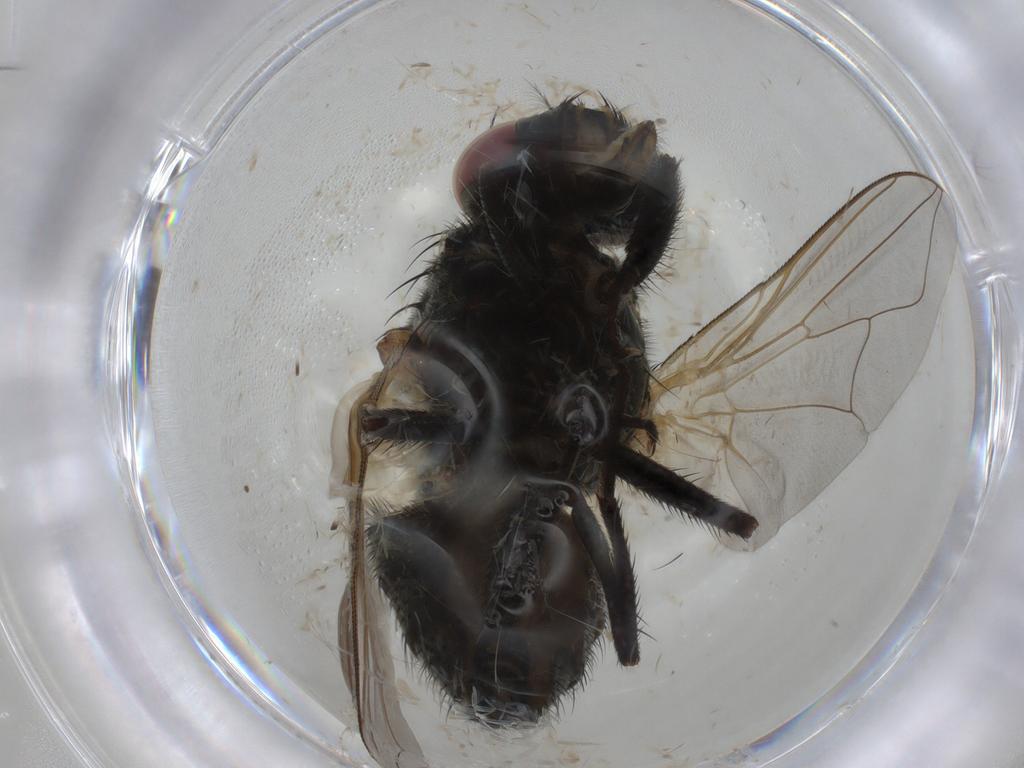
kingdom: Animalia
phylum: Arthropoda
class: Insecta
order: Diptera
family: Muscidae
